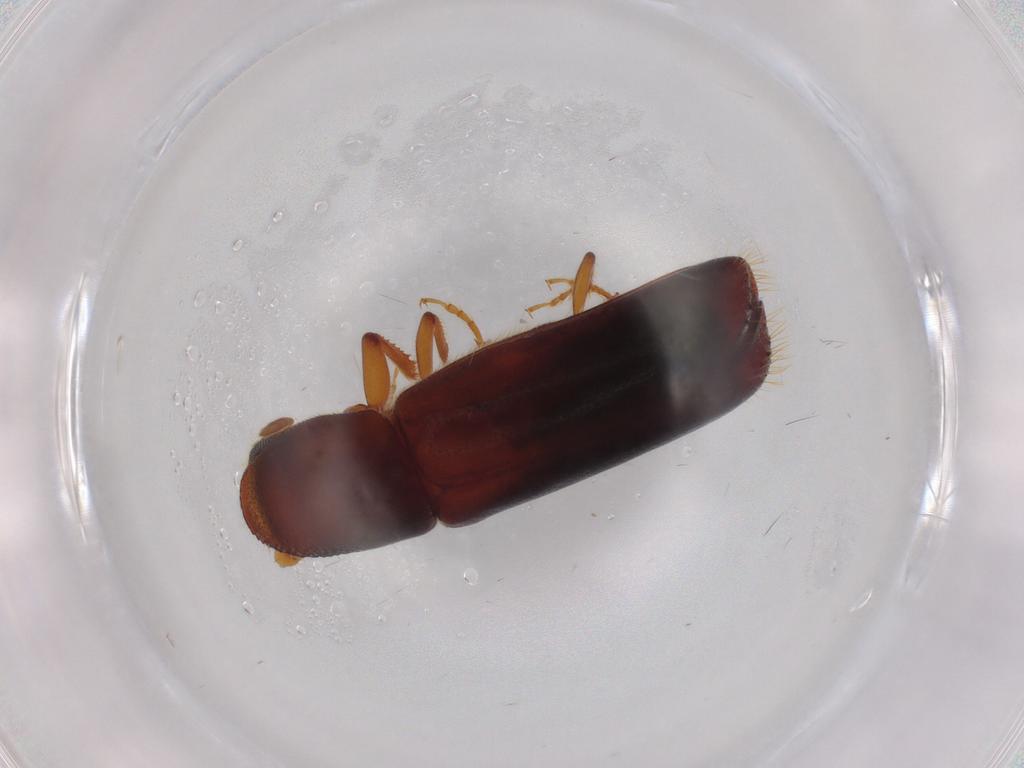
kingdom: Animalia
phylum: Arthropoda
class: Insecta
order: Coleoptera
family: Curculionidae
